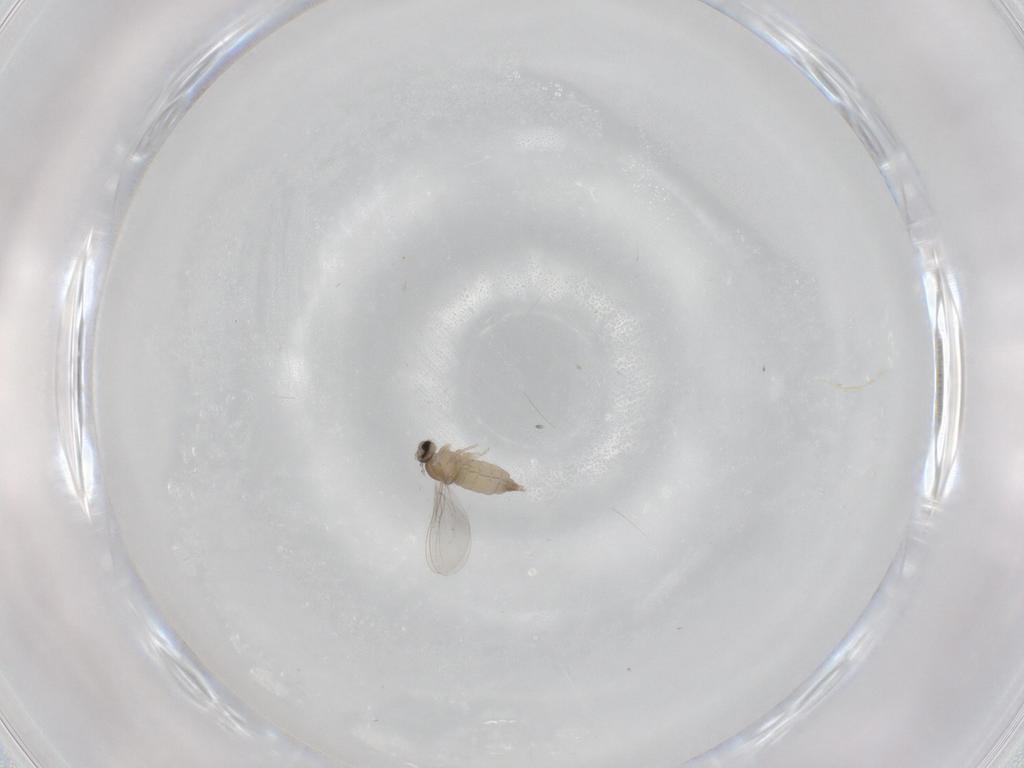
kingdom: Animalia
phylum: Arthropoda
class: Insecta
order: Diptera
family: Cecidomyiidae
